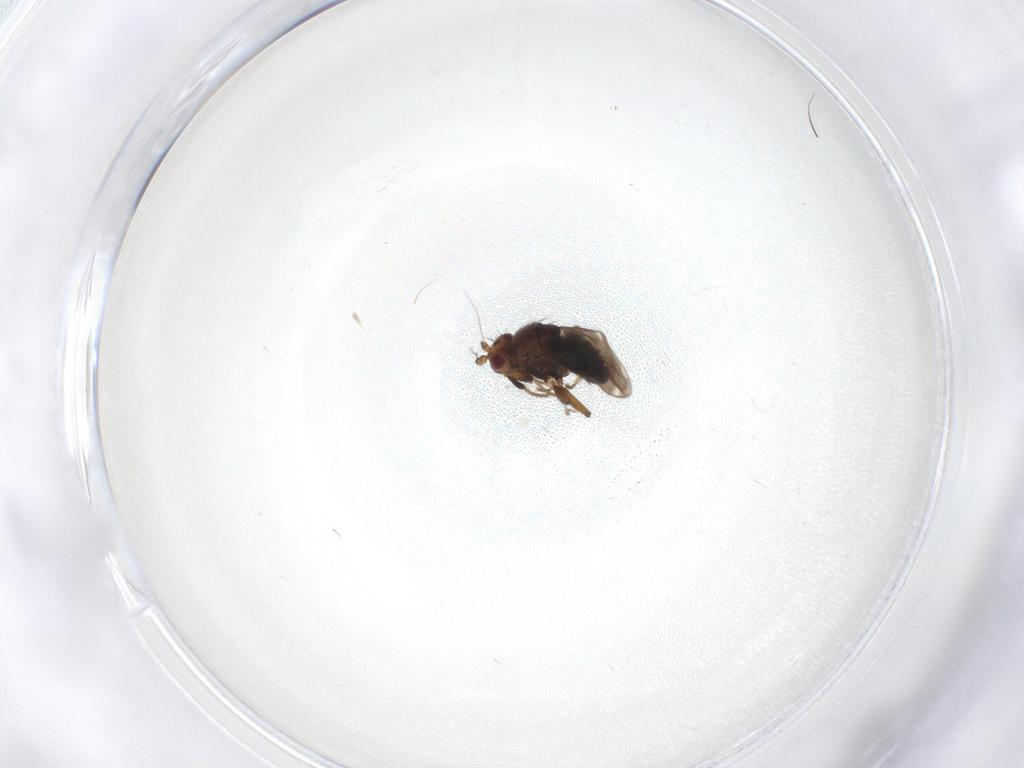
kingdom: Animalia
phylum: Arthropoda
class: Insecta
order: Diptera
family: Sphaeroceridae
